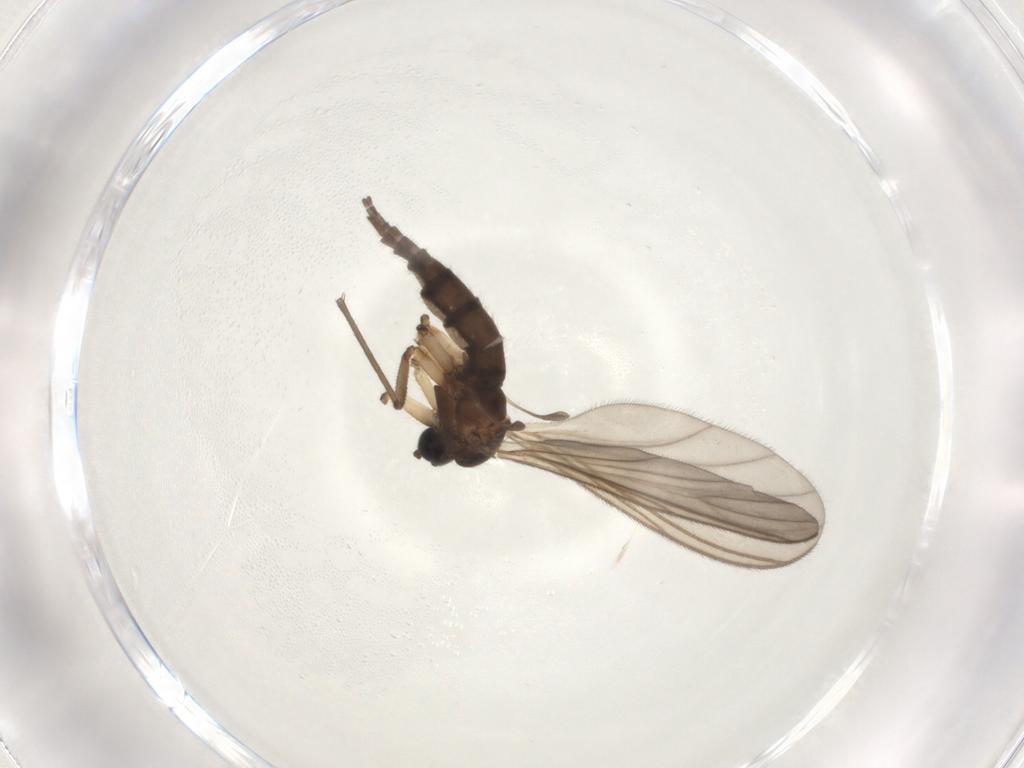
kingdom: Animalia
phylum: Arthropoda
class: Insecta
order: Diptera
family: Sciaridae
